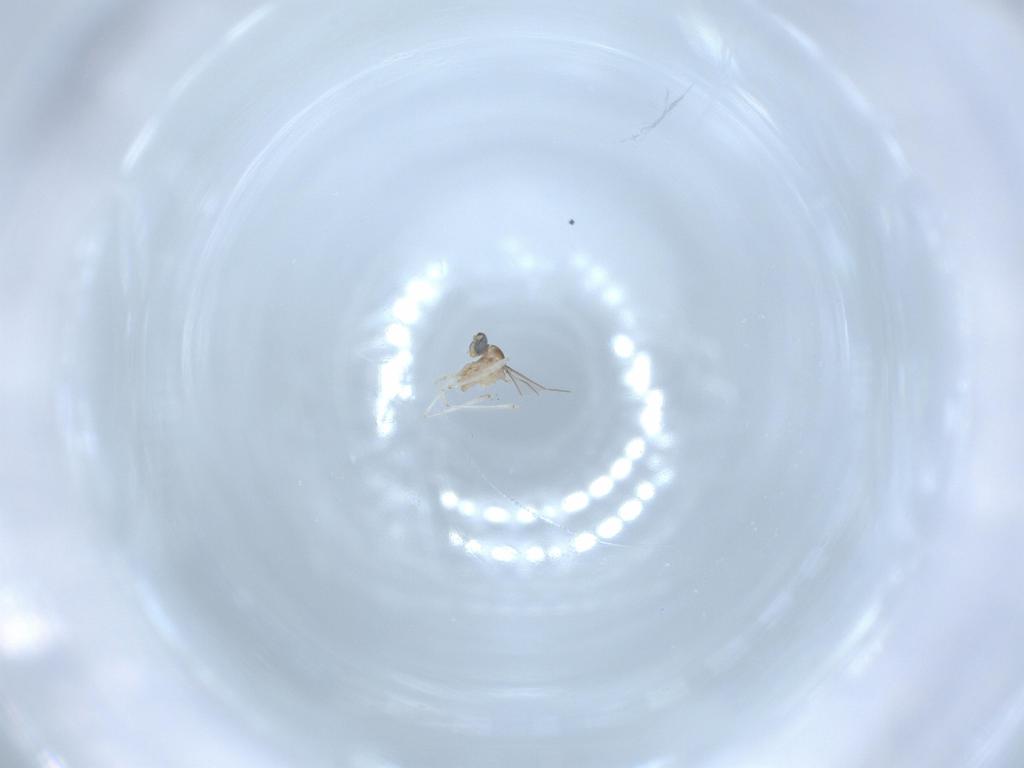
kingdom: Animalia
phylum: Arthropoda
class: Insecta
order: Diptera
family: Cecidomyiidae
